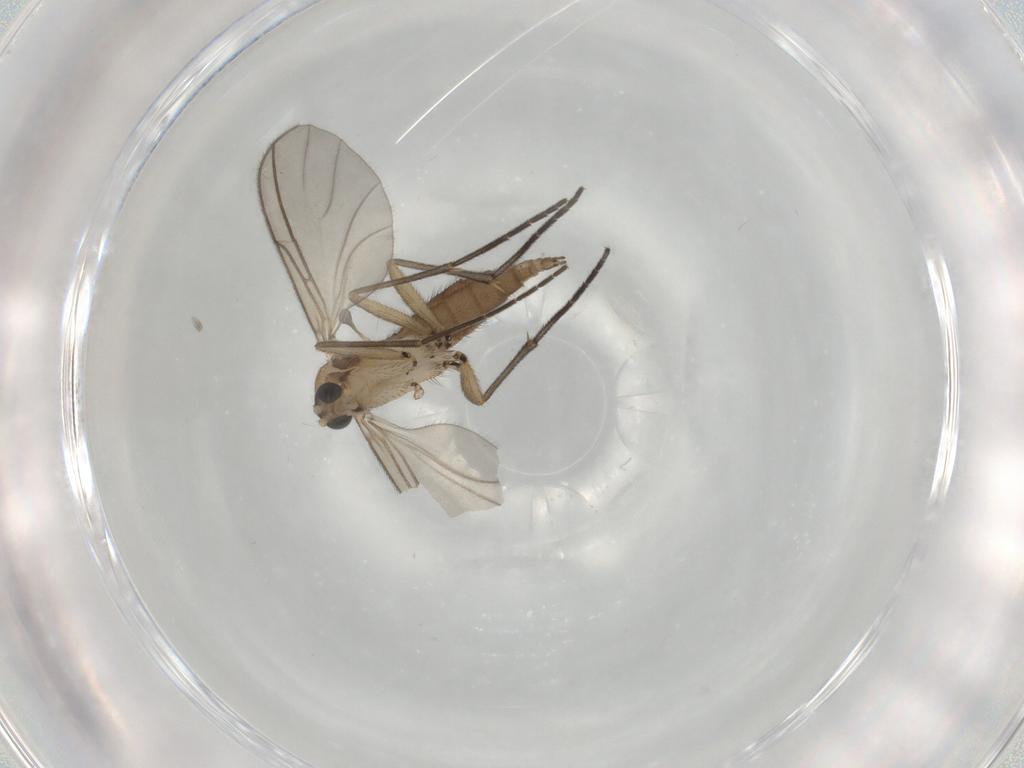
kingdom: Animalia
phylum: Arthropoda
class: Insecta
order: Diptera
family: Sciaridae
